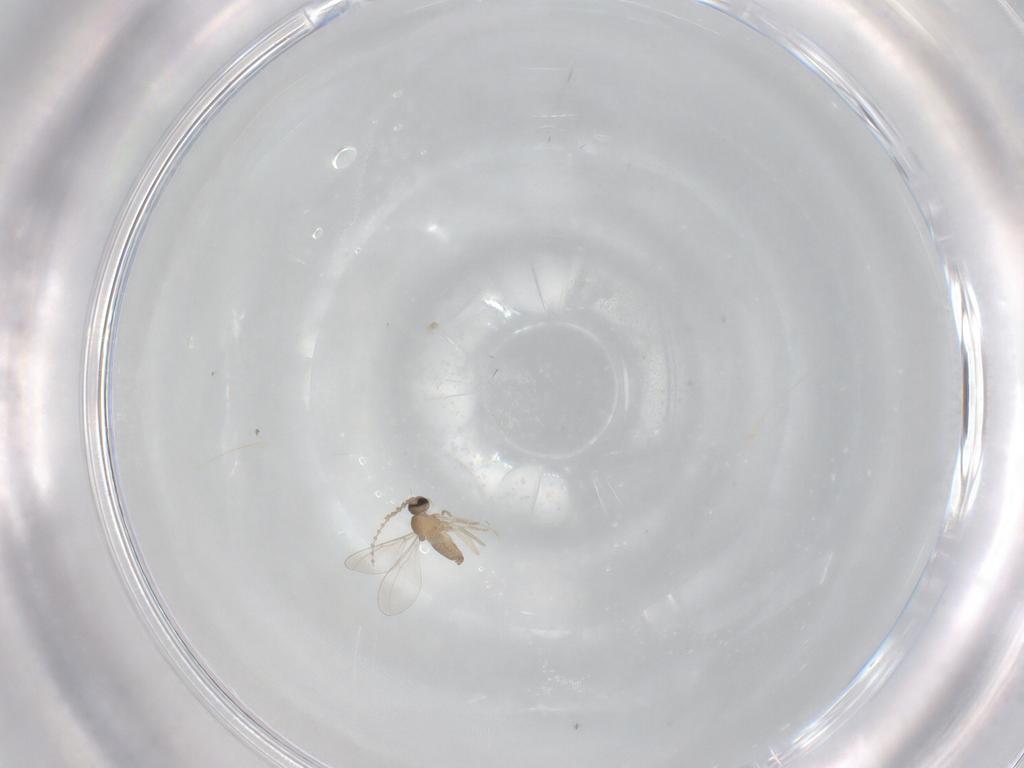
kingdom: Animalia
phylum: Arthropoda
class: Insecta
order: Diptera
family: Cecidomyiidae
